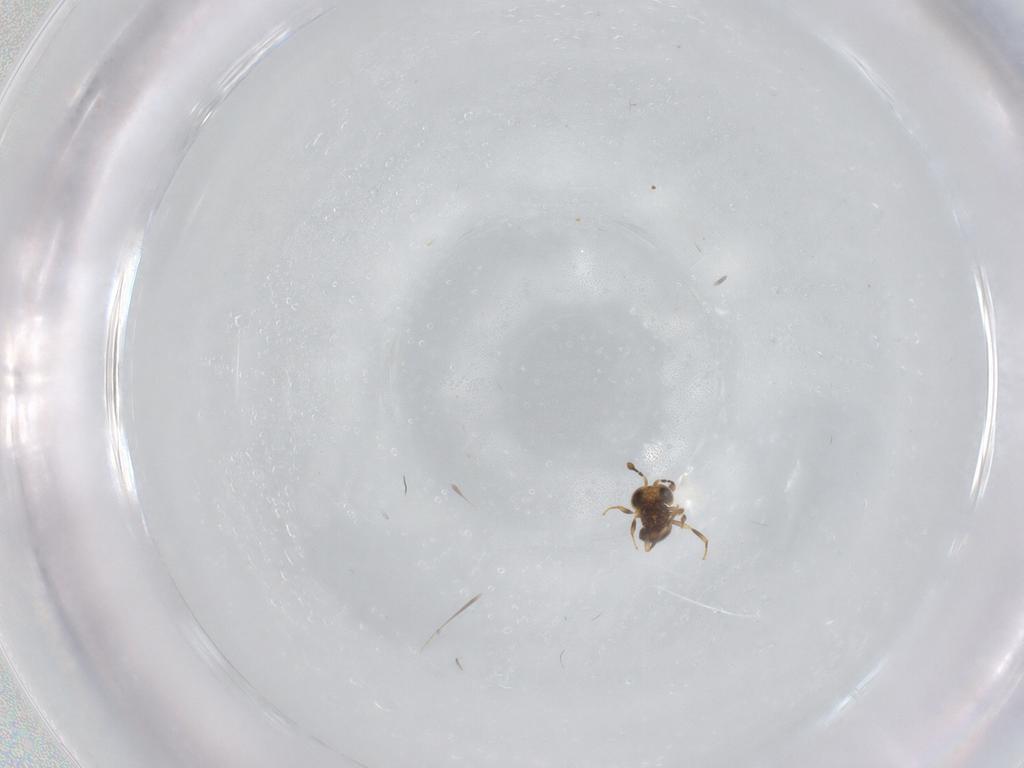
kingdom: Animalia
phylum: Arthropoda
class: Insecta
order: Hymenoptera
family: Scelionidae
